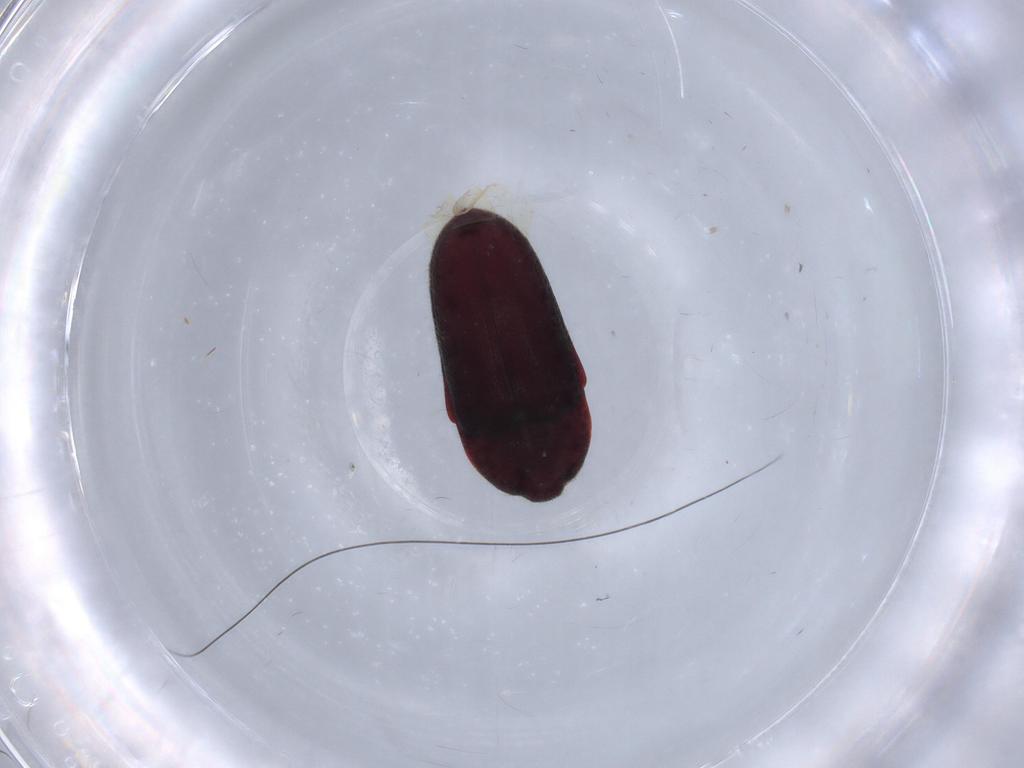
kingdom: Animalia
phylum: Arthropoda
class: Insecta
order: Coleoptera
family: Throscidae
